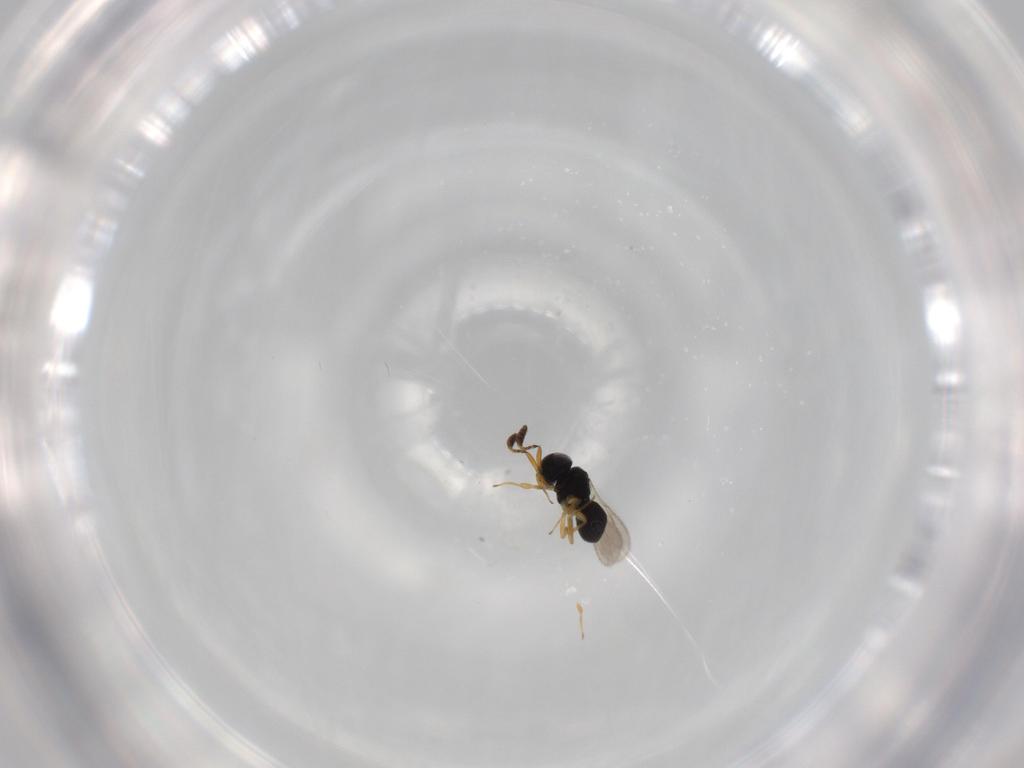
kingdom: Animalia
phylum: Arthropoda
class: Insecta
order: Hymenoptera
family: Scelionidae
